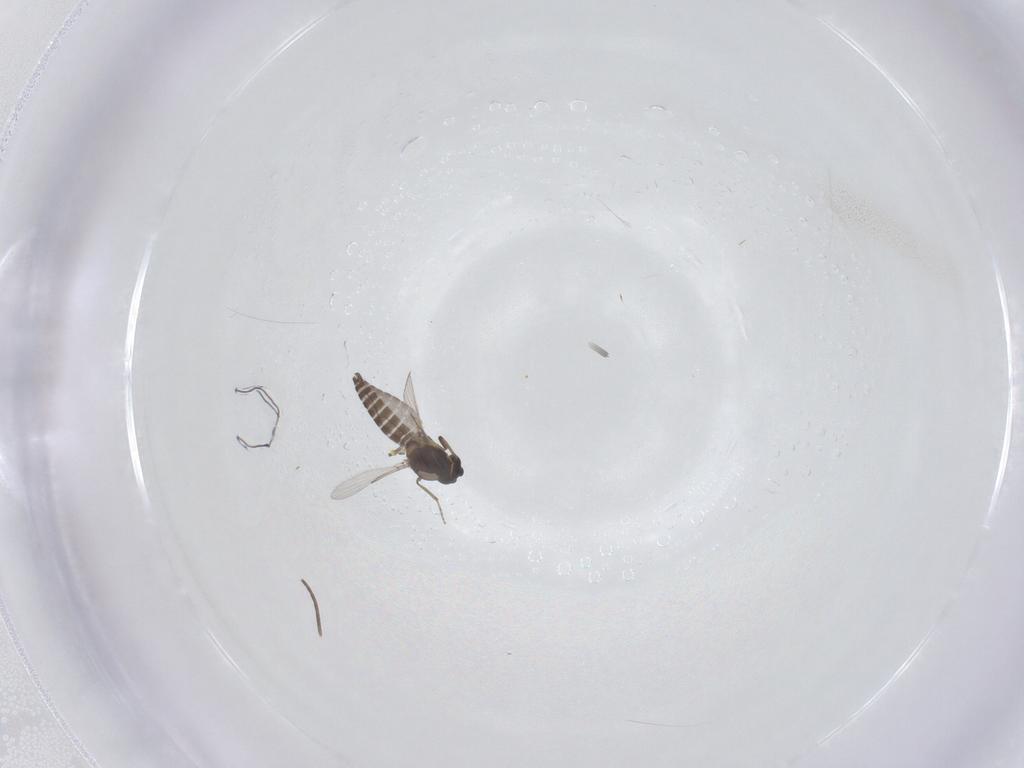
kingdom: Animalia
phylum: Arthropoda
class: Insecta
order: Diptera
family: Ceratopogonidae
